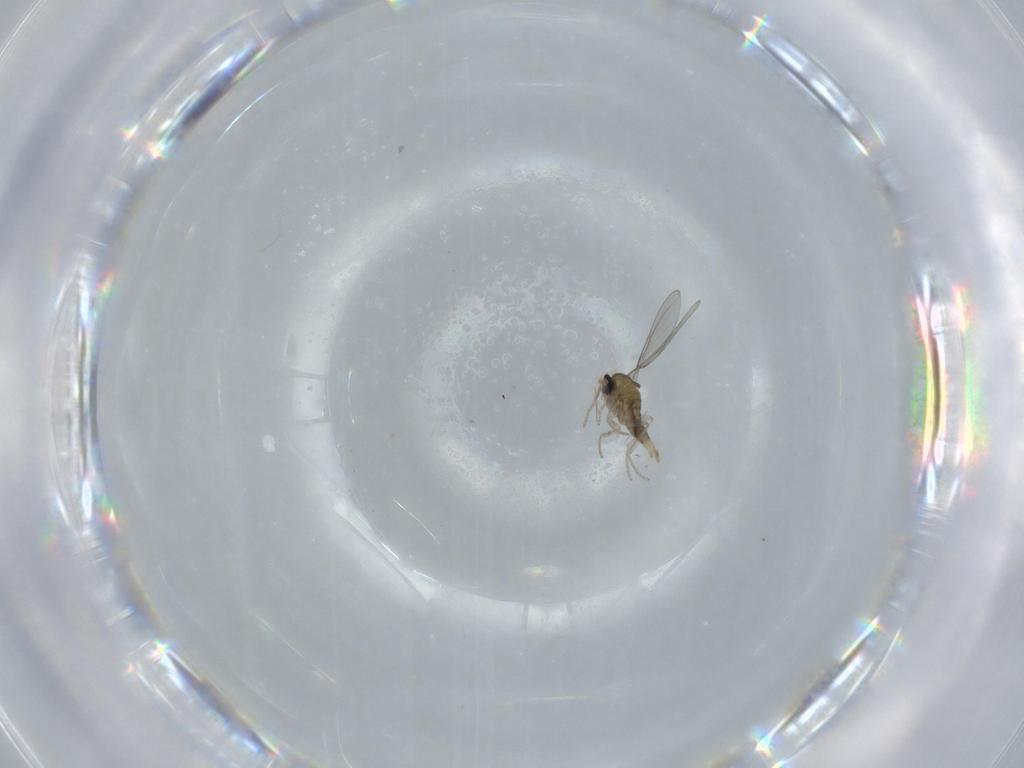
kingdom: Animalia
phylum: Arthropoda
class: Insecta
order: Diptera
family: Cecidomyiidae
